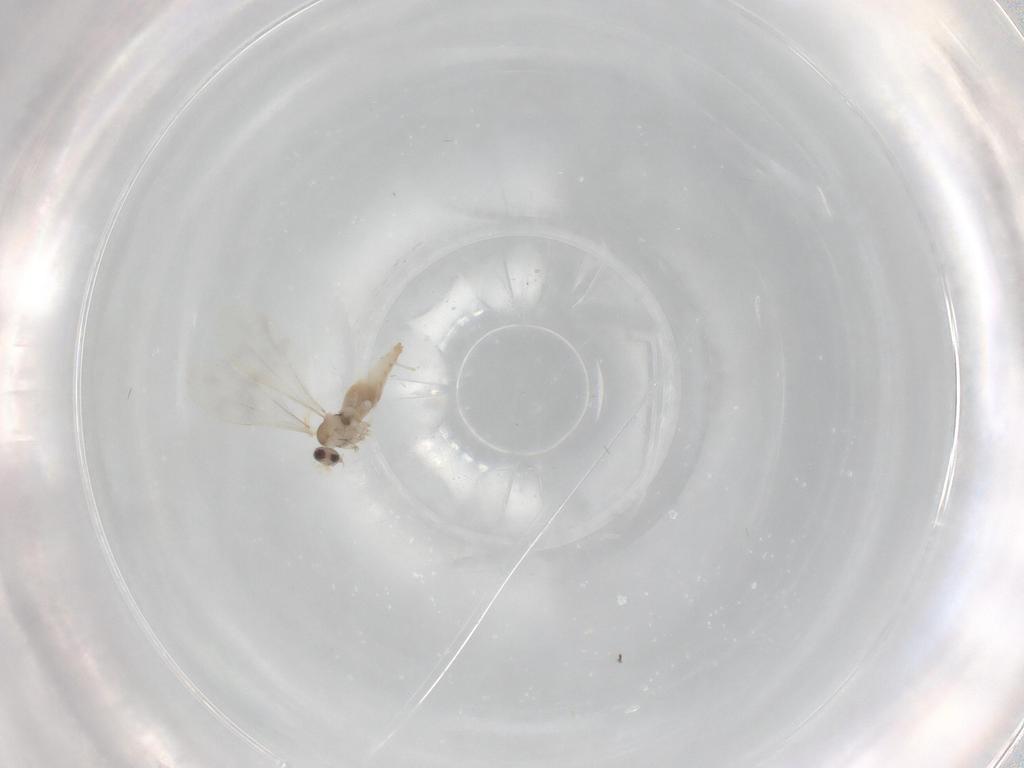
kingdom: Animalia
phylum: Arthropoda
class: Insecta
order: Diptera
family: Cecidomyiidae
